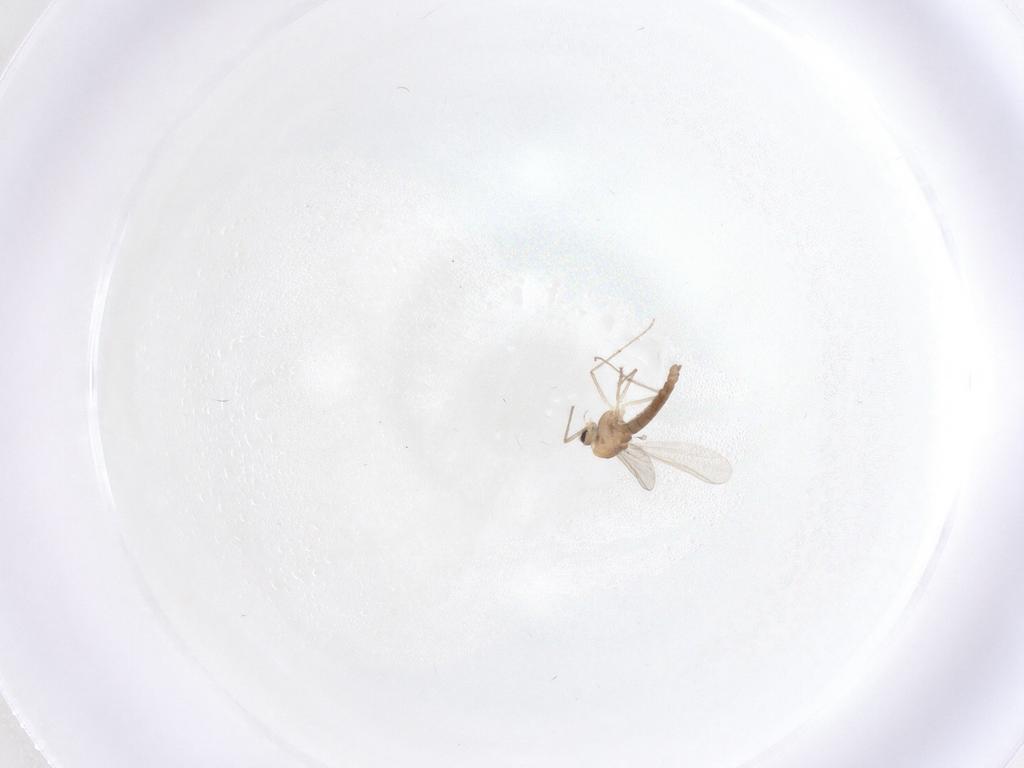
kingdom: Animalia
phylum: Arthropoda
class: Insecta
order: Diptera
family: Chironomidae
